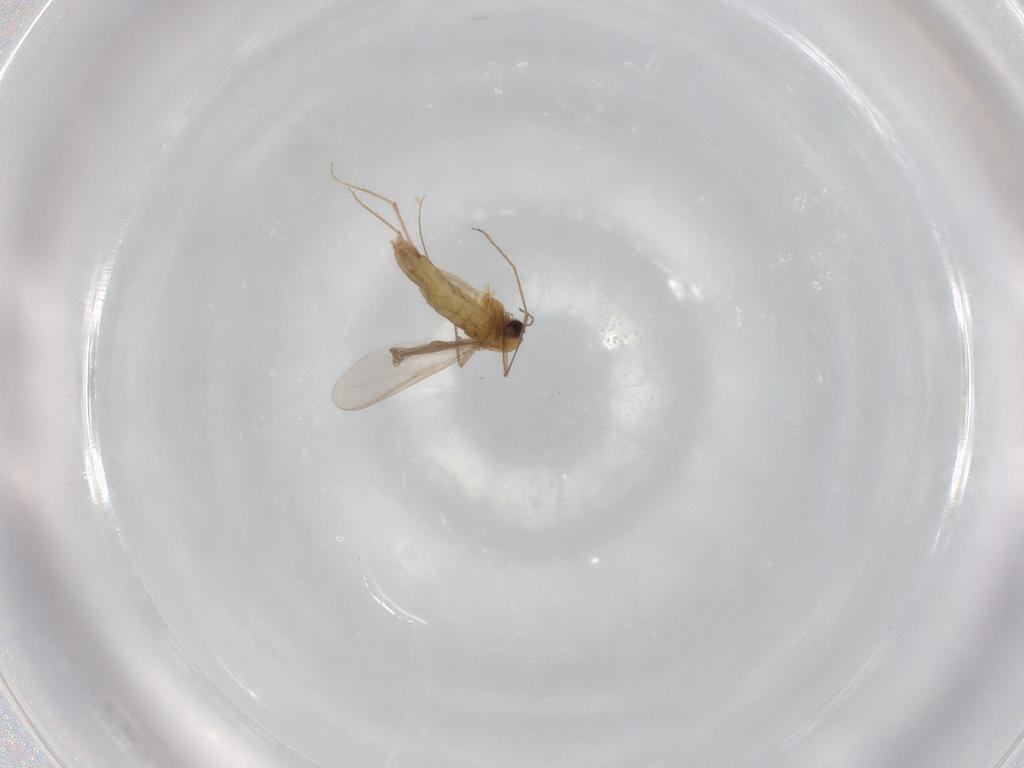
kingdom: Animalia
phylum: Arthropoda
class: Insecta
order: Diptera
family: Chironomidae
